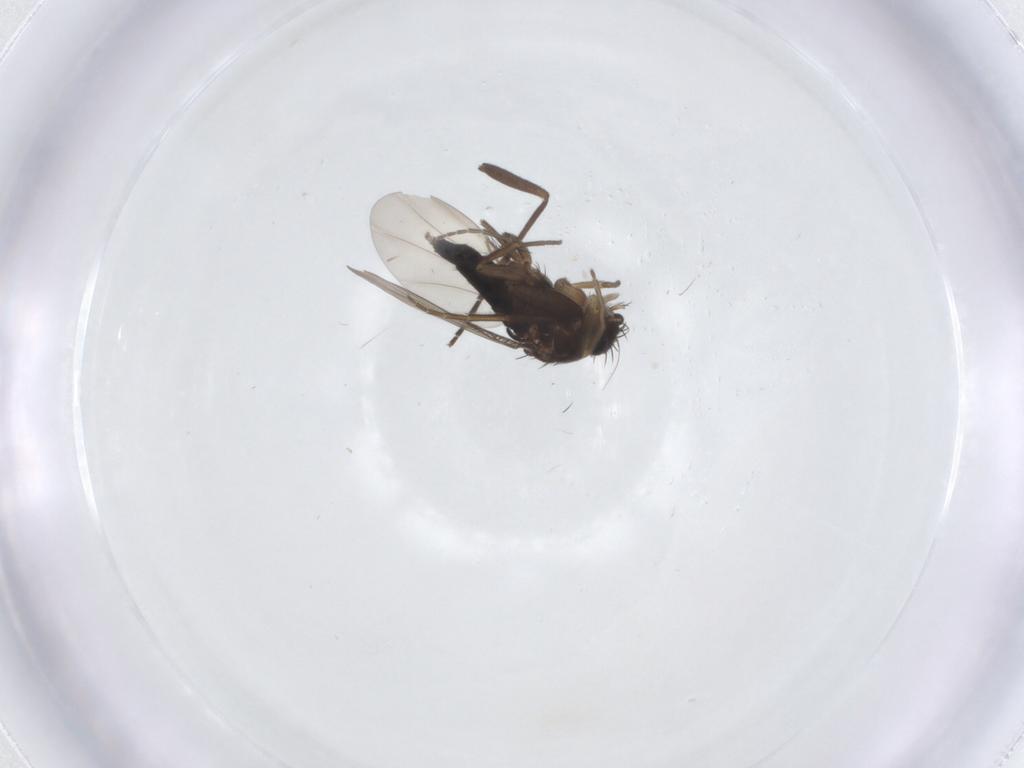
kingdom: Animalia
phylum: Arthropoda
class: Insecta
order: Diptera
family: Phoridae
